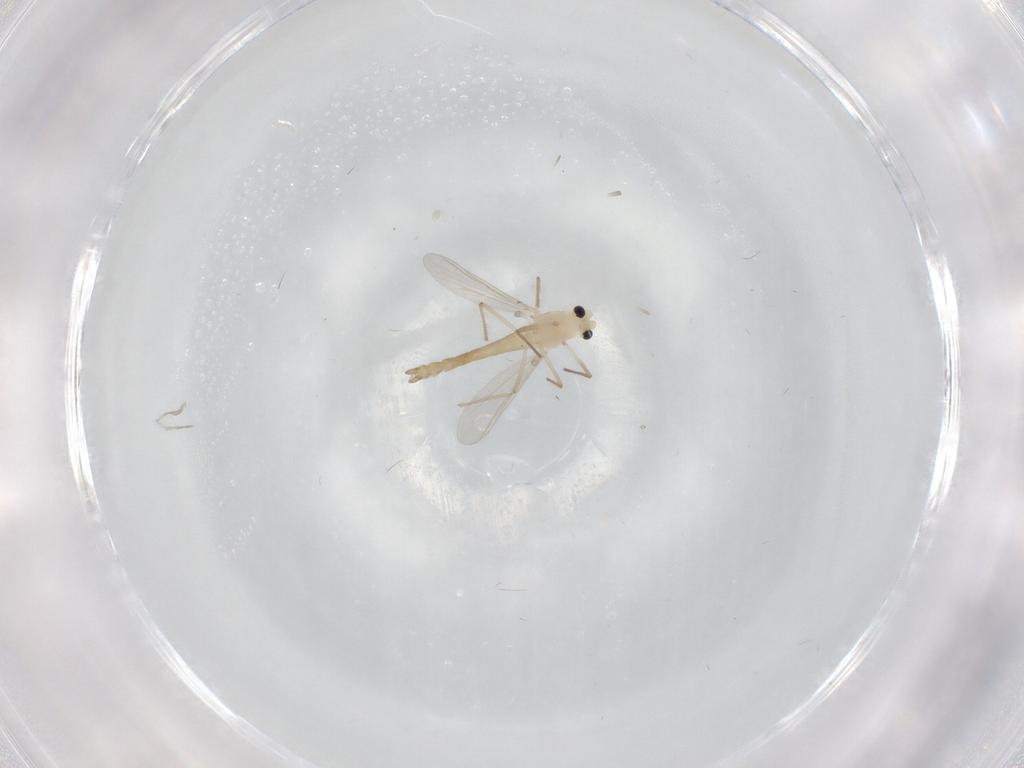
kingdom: Animalia
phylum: Arthropoda
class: Insecta
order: Diptera
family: Chironomidae
